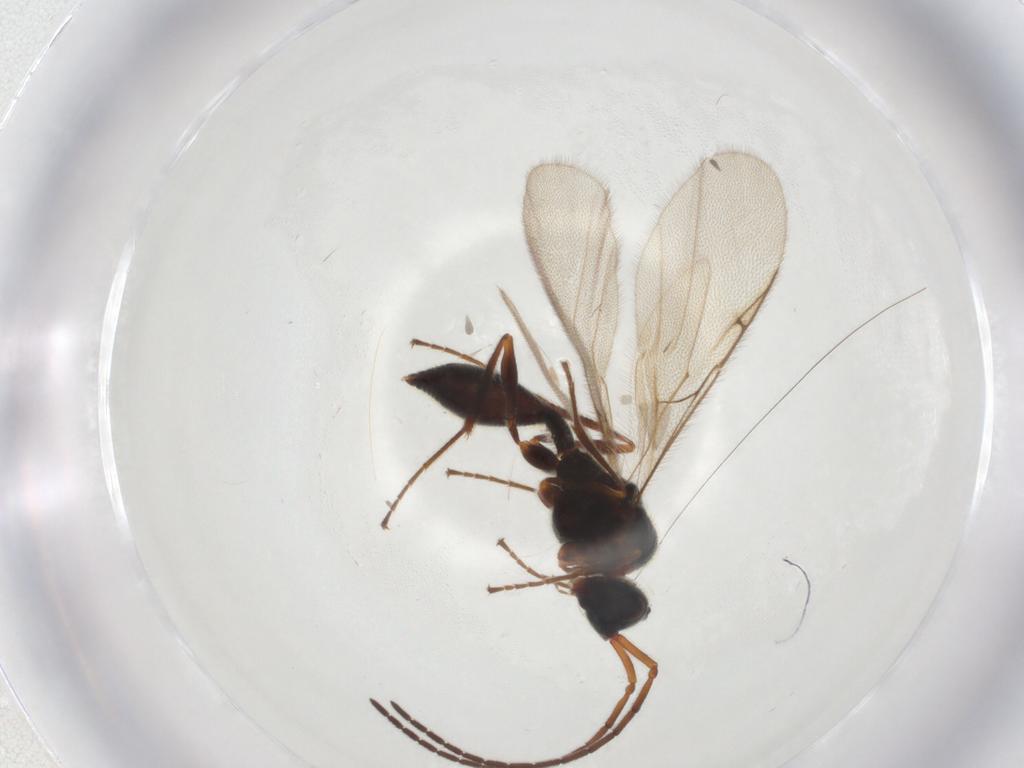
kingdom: Animalia
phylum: Arthropoda
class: Insecta
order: Hymenoptera
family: Diapriidae
